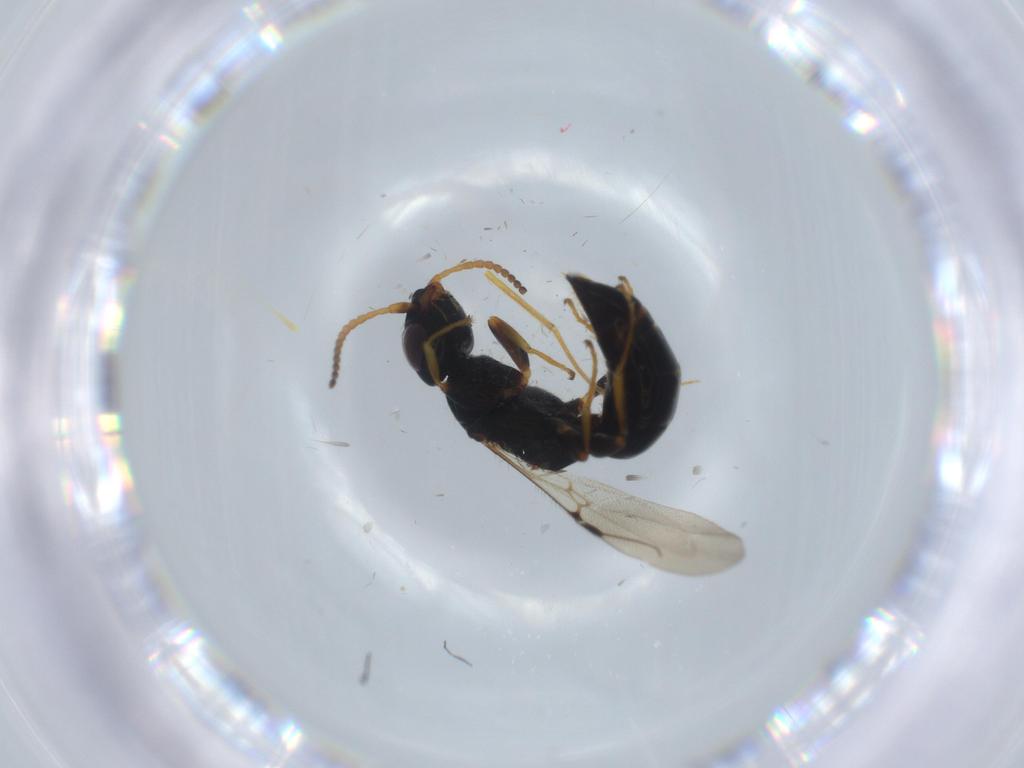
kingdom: Animalia
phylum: Arthropoda
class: Insecta
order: Hymenoptera
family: Bethylidae
